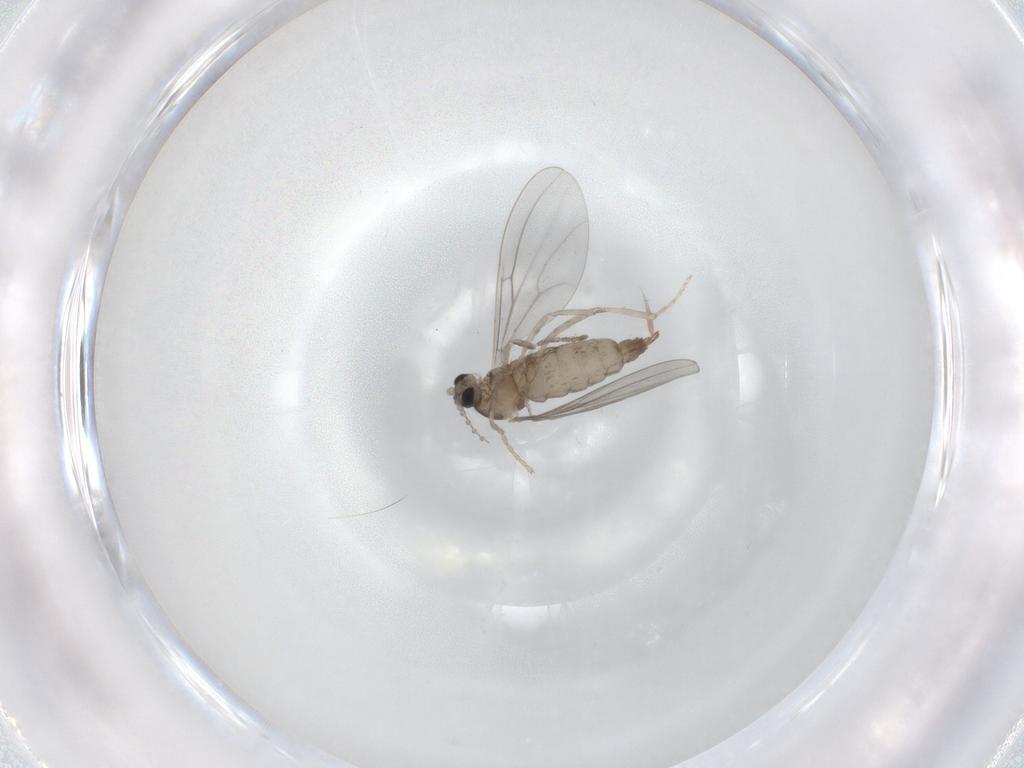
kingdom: Animalia
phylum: Arthropoda
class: Insecta
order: Diptera
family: Cecidomyiidae
